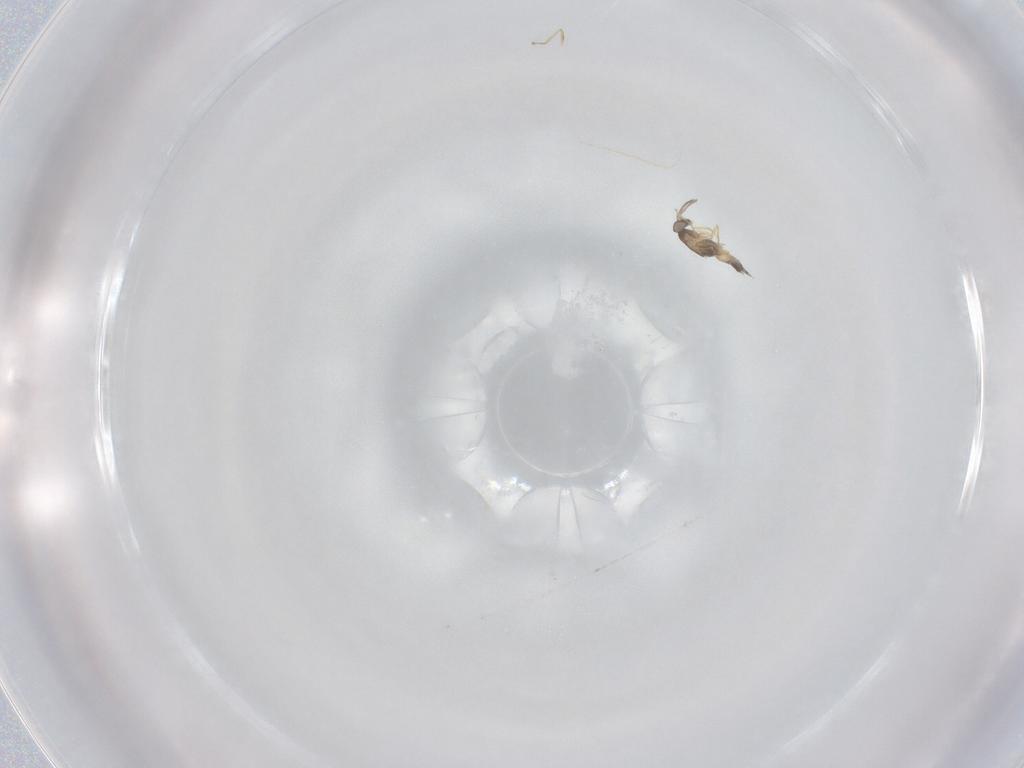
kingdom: Animalia
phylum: Arthropoda
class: Insecta
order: Hymenoptera
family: Mymaridae
